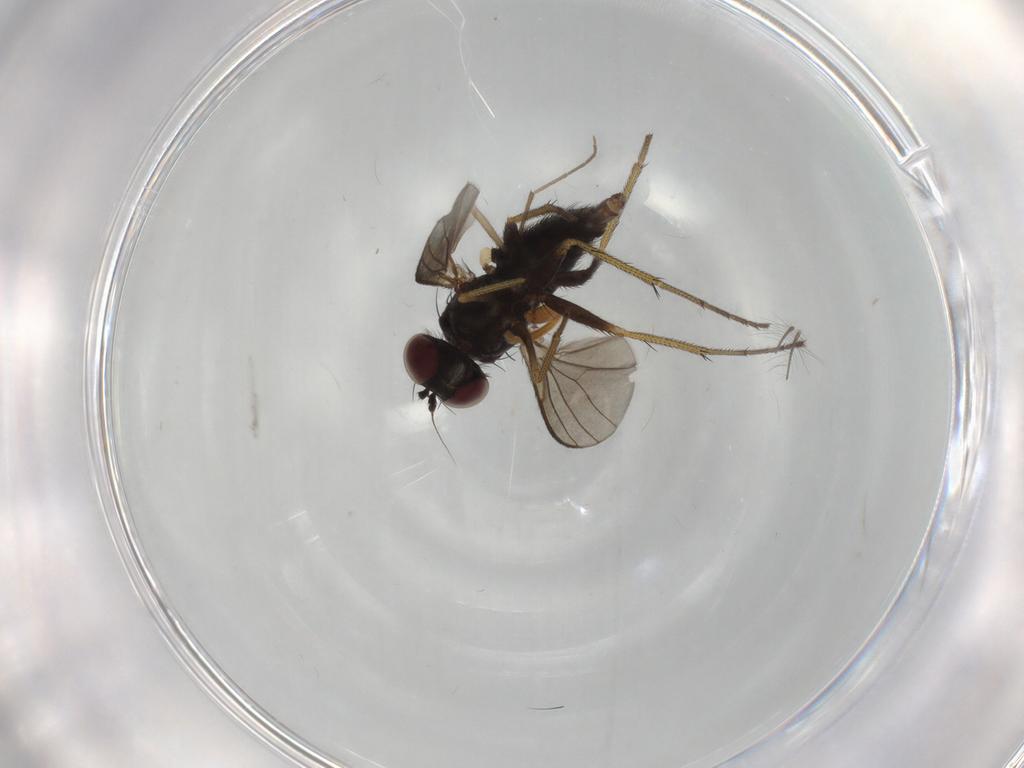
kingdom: Animalia
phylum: Arthropoda
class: Insecta
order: Diptera
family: Dolichopodidae
